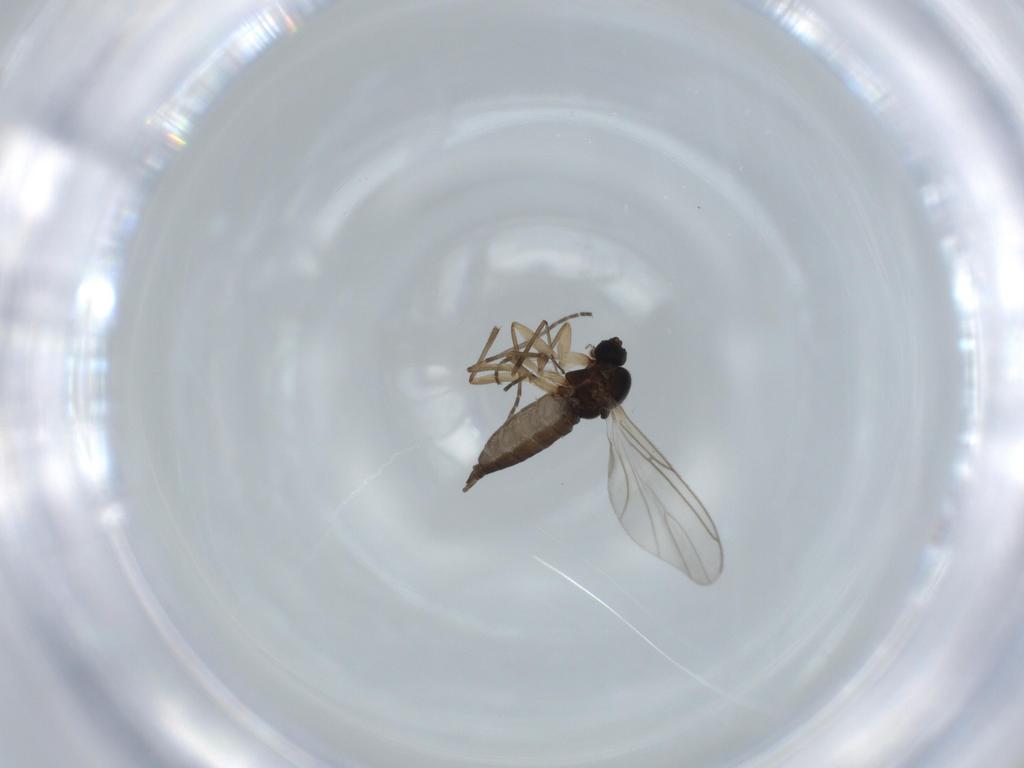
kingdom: Animalia
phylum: Arthropoda
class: Insecta
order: Diptera
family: Sciaridae
